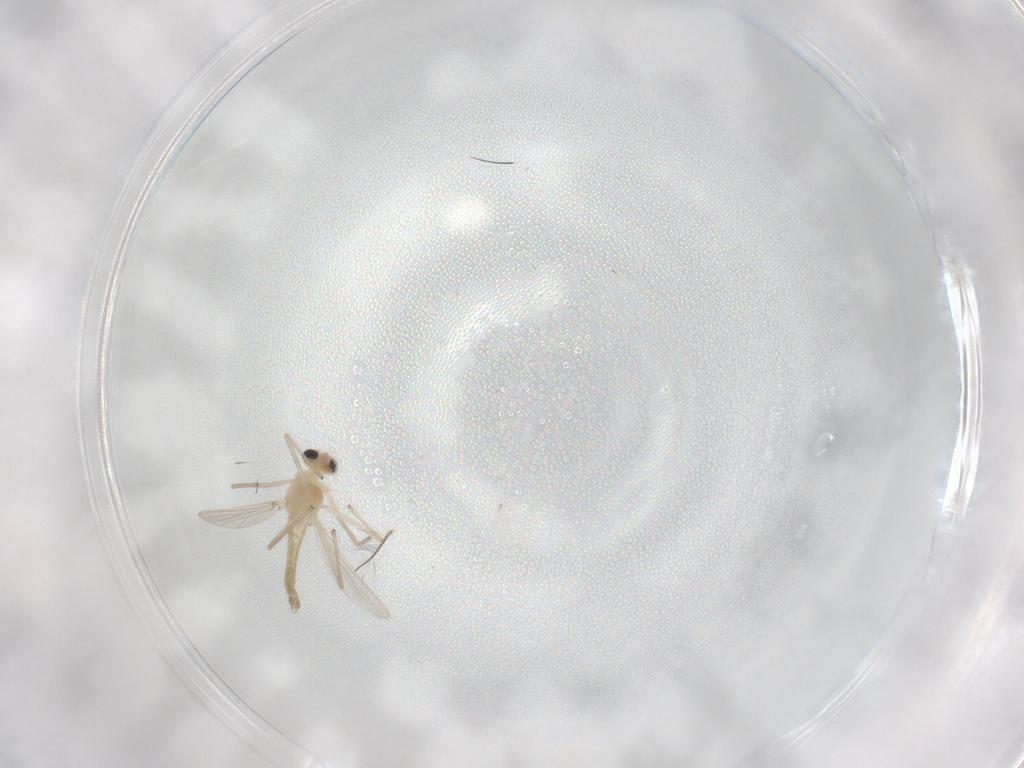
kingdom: Animalia
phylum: Arthropoda
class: Insecta
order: Diptera
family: Chironomidae
